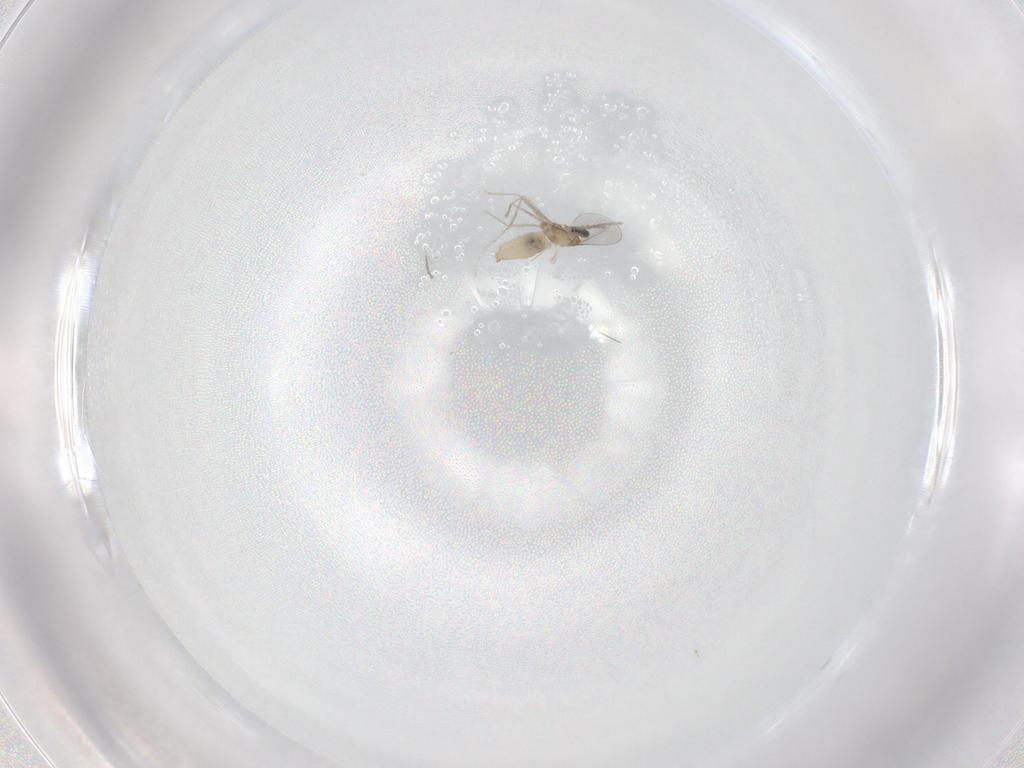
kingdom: Animalia
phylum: Arthropoda
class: Insecta
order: Diptera
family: Cecidomyiidae
